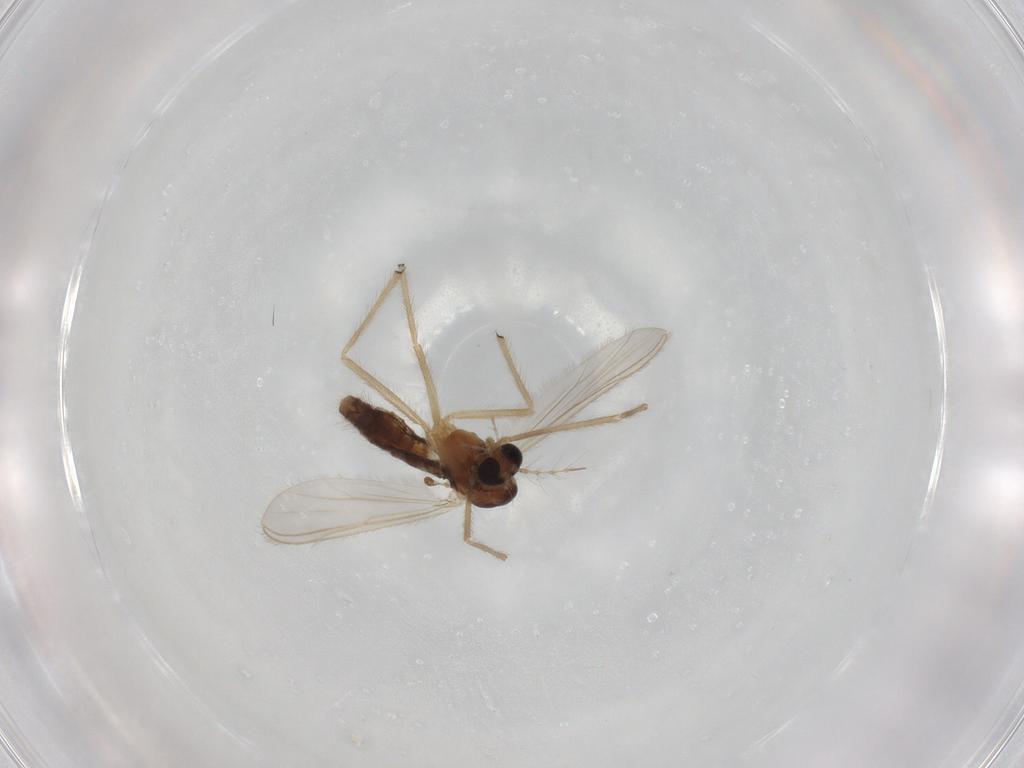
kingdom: Animalia
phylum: Arthropoda
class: Insecta
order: Diptera
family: Chironomidae
